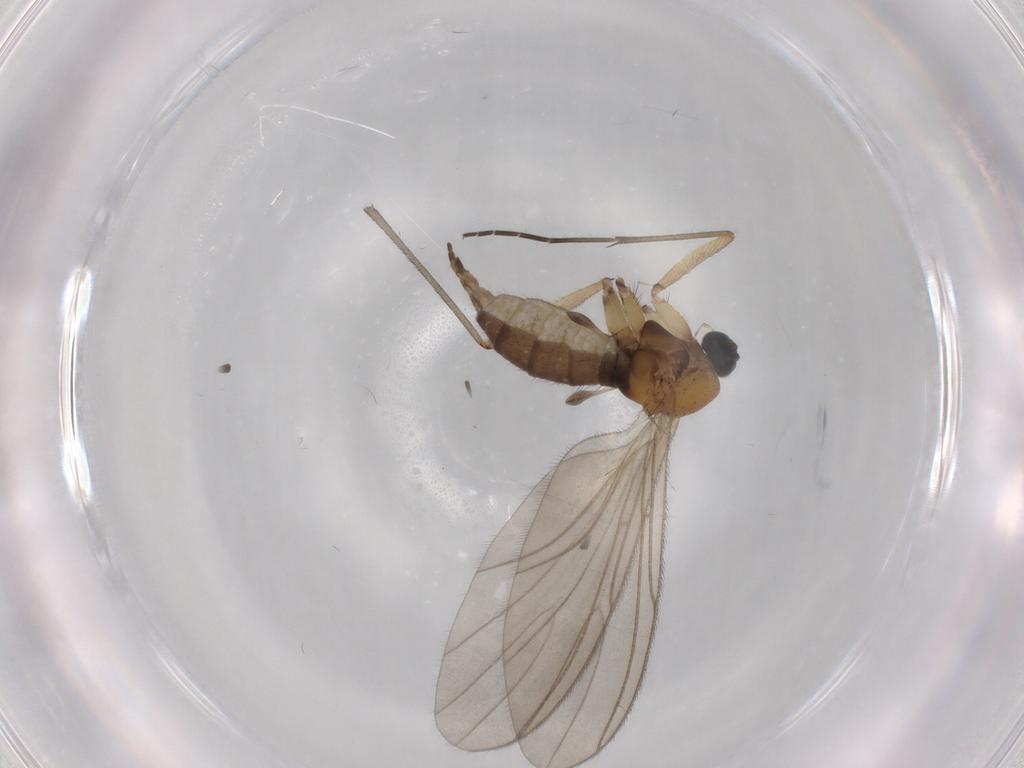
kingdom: Animalia
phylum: Arthropoda
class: Insecta
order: Diptera
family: Sciaridae
